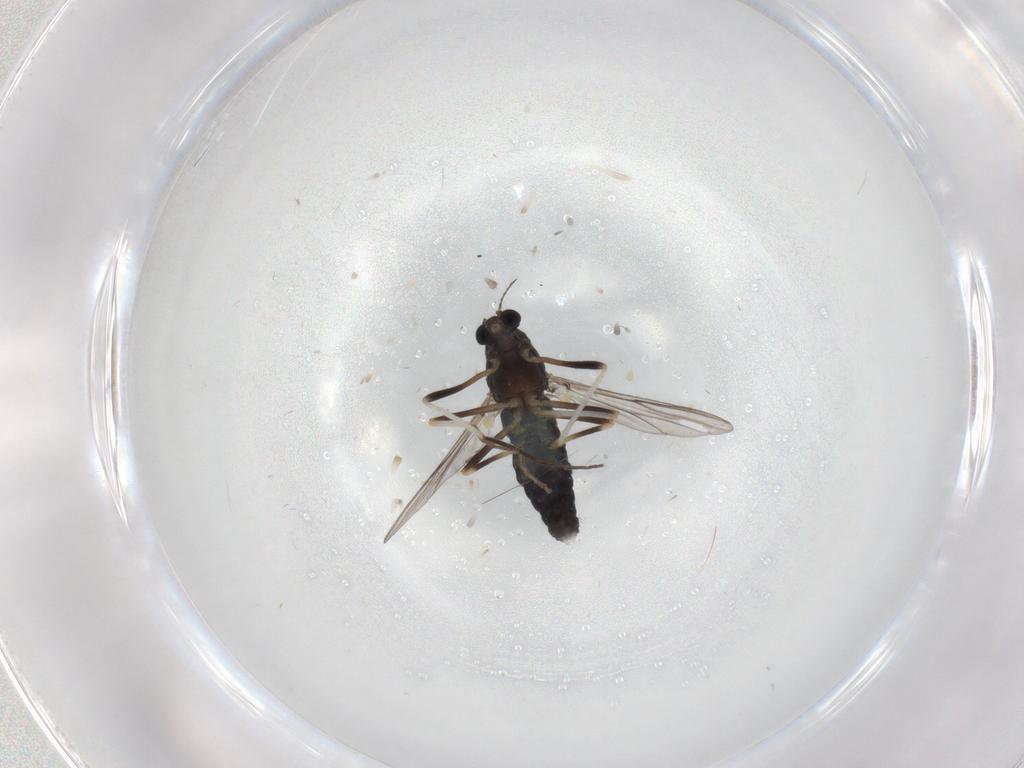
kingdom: Animalia
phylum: Arthropoda
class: Insecta
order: Diptera
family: Chironomidae
